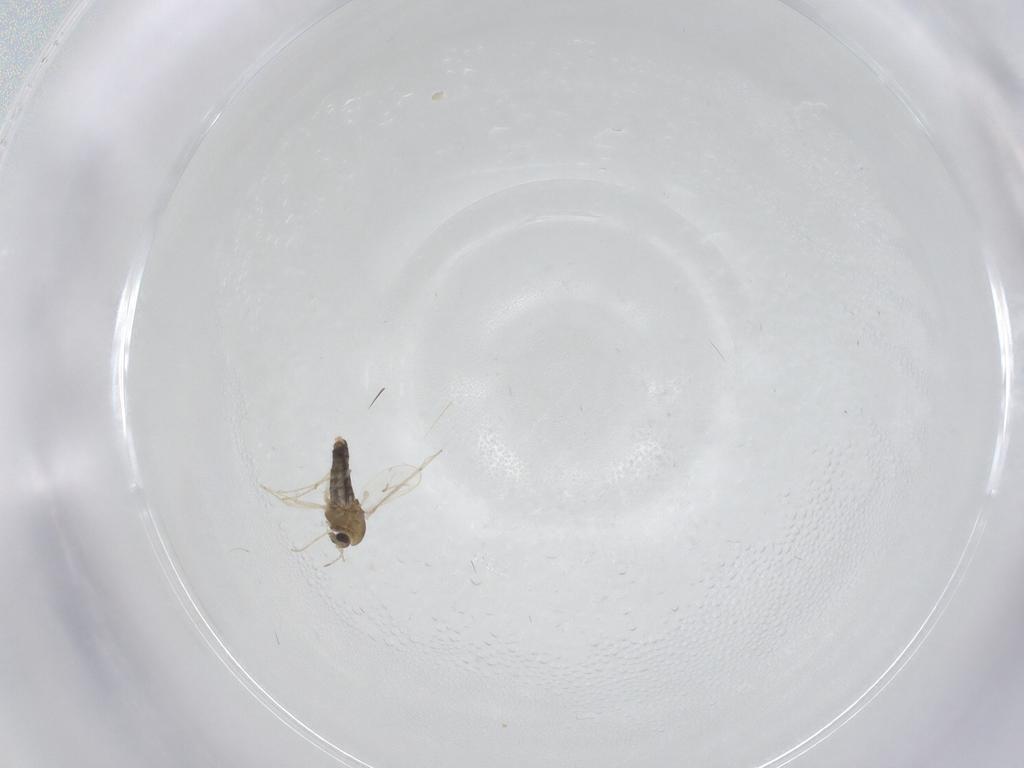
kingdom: Animalia
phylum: Arthropoda
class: Insecta
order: Diptera
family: Chironomidae
